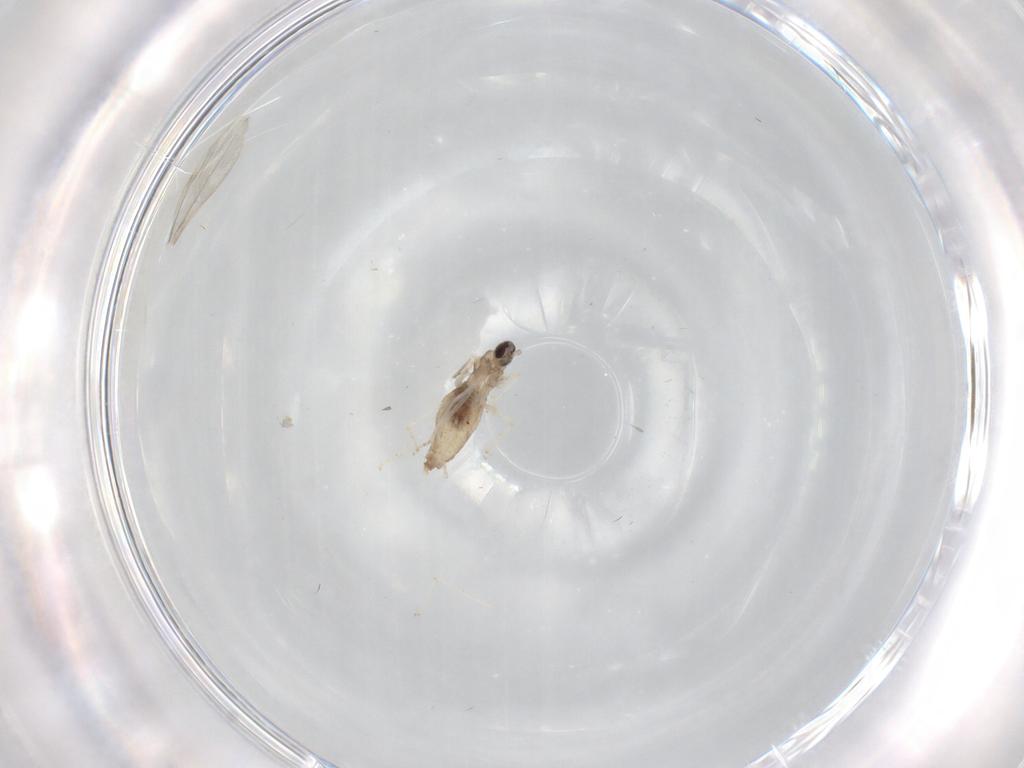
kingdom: Animalia
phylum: Arthropoda
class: Insecta
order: Diptera
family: Cecidomyiidae
